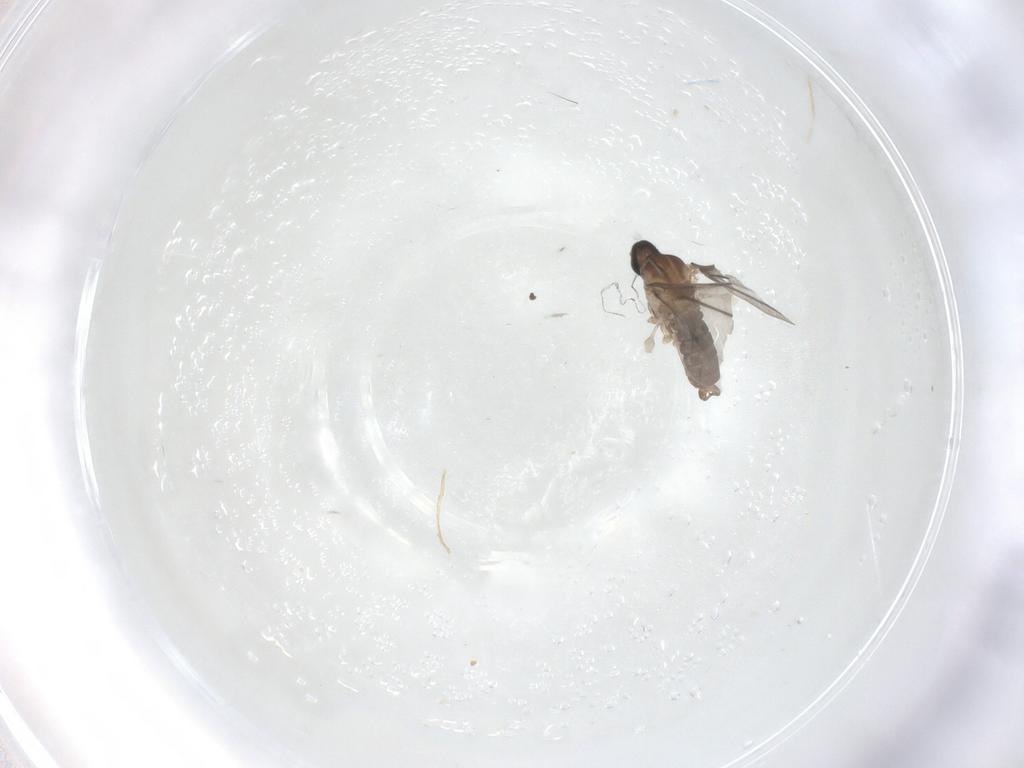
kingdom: Animalia
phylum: Arthropoda
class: Insecta
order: Diptera
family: Cecidomyiidae
